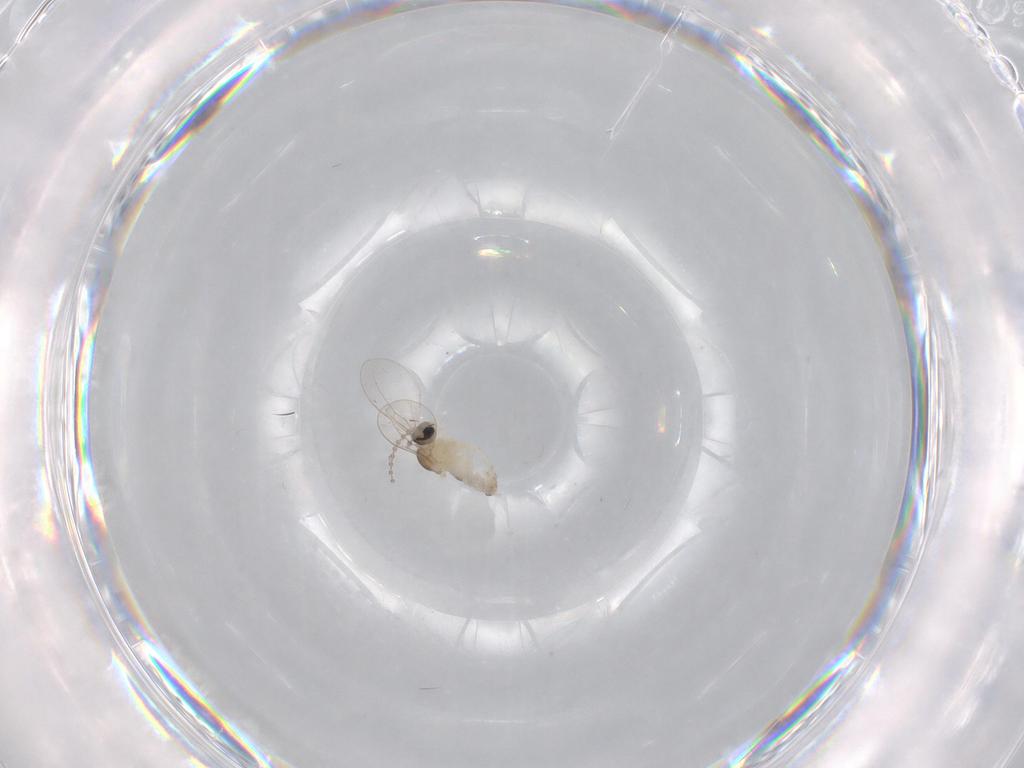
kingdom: Animalia
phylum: Arthropoda
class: Insecta
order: Diptera
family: Cecidomyiidae
